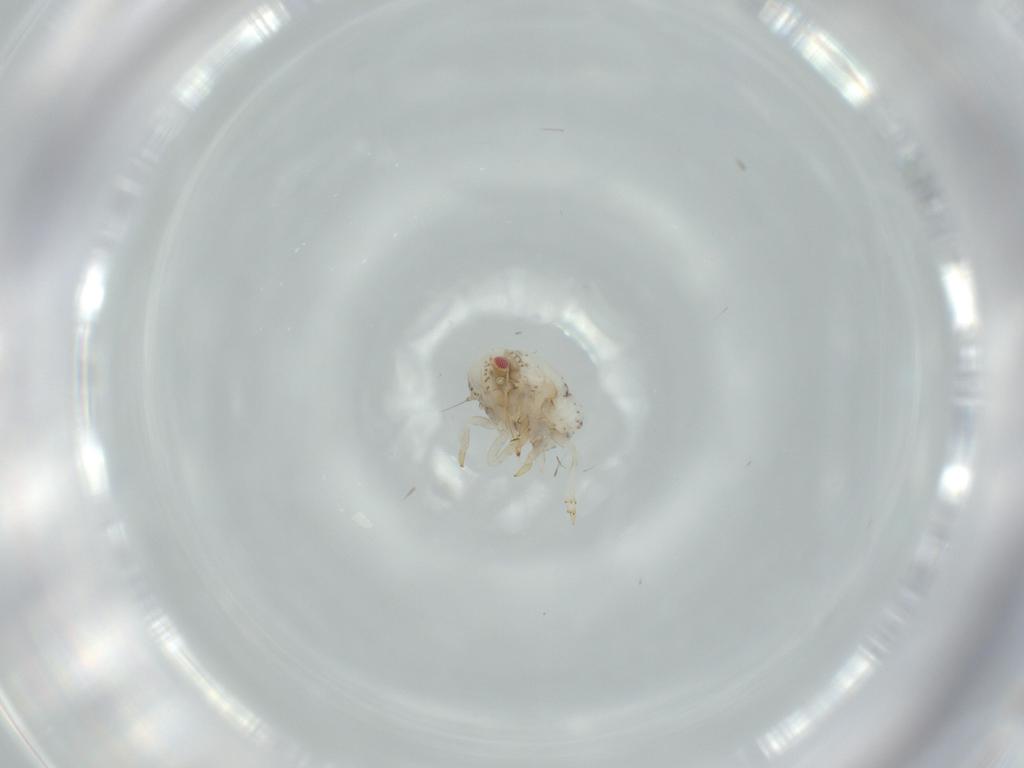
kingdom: Animalia
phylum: Arthropoda
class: Insecta
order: Hemiptera
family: Acanaloniidae
